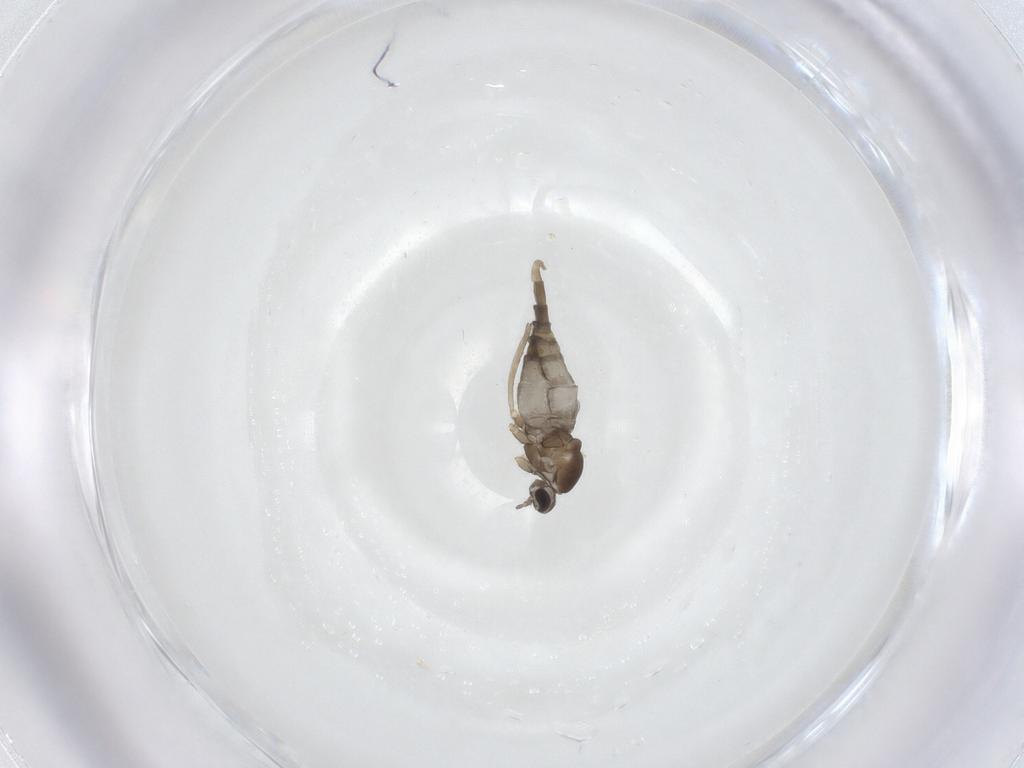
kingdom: Animalia
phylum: Arthropoda
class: Insecta
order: Diptera
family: Cecidomyiidae
